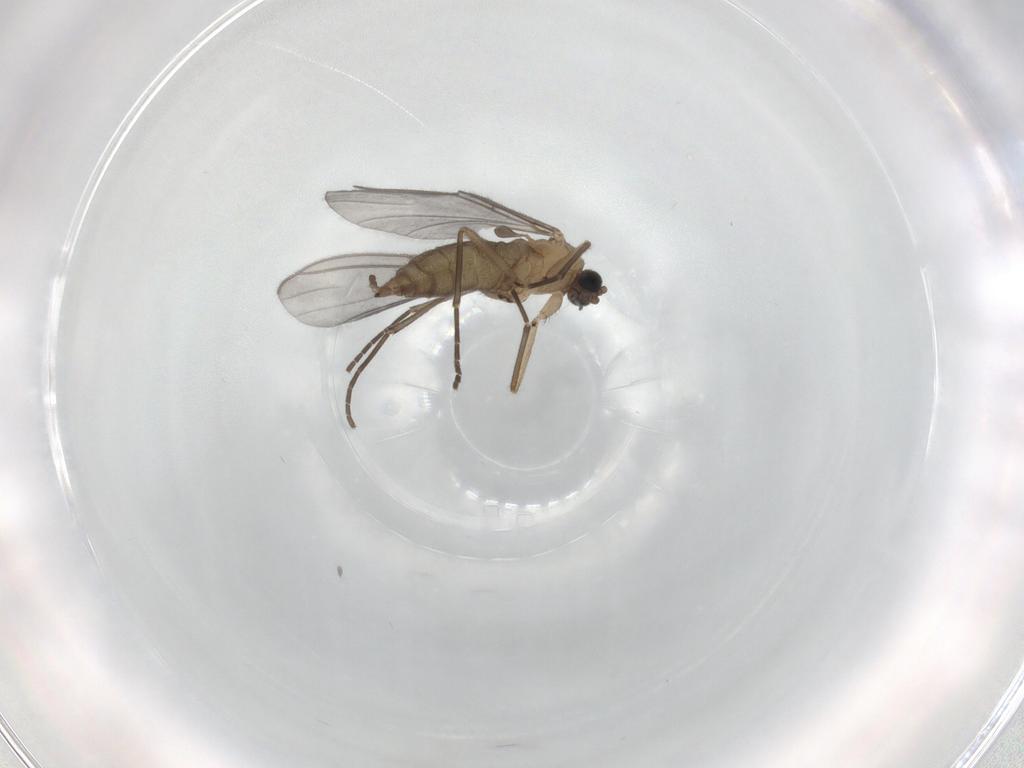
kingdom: Animalia
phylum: Arthropoda
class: Insecta
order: Diptera
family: Sciaridae
